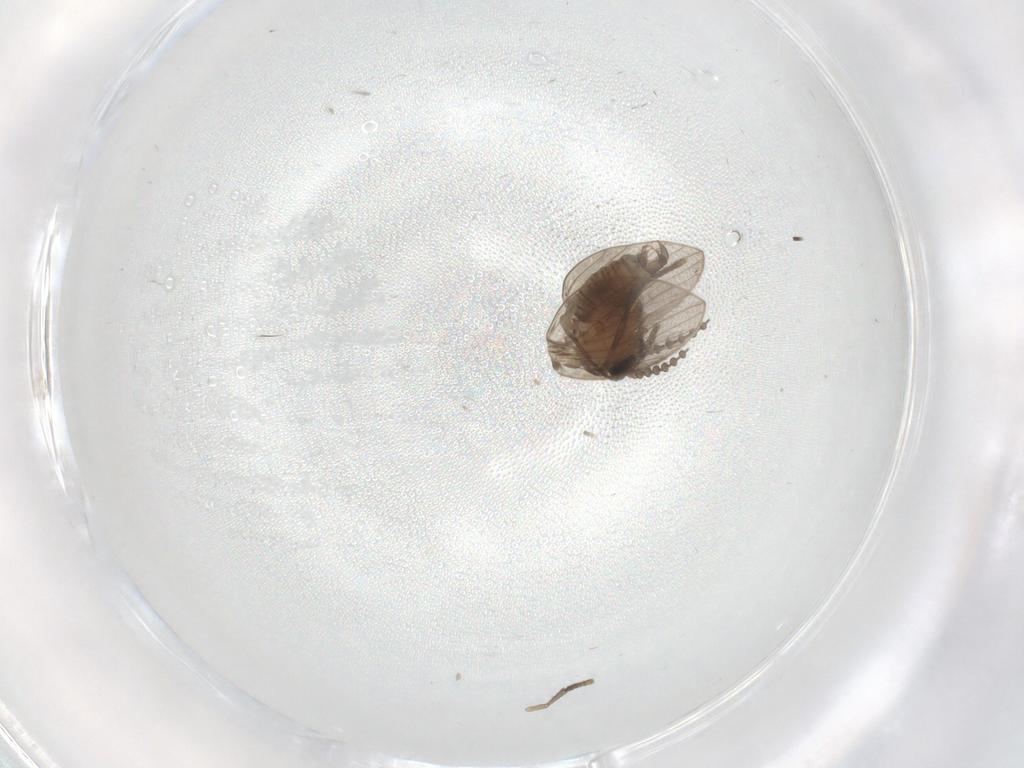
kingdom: Animalia
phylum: Arthropoda
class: Insecta
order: Diptera
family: Psychodidae
